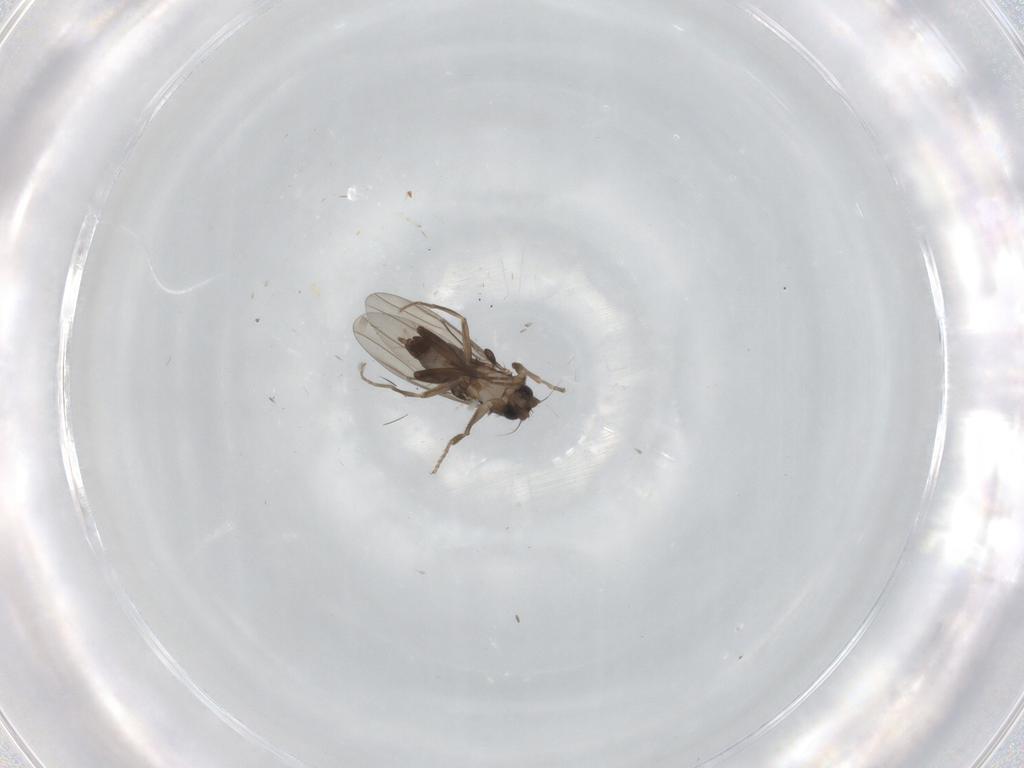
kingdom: Animalia
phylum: Arthropoda
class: Insecta
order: Diptera
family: Sciaridae
